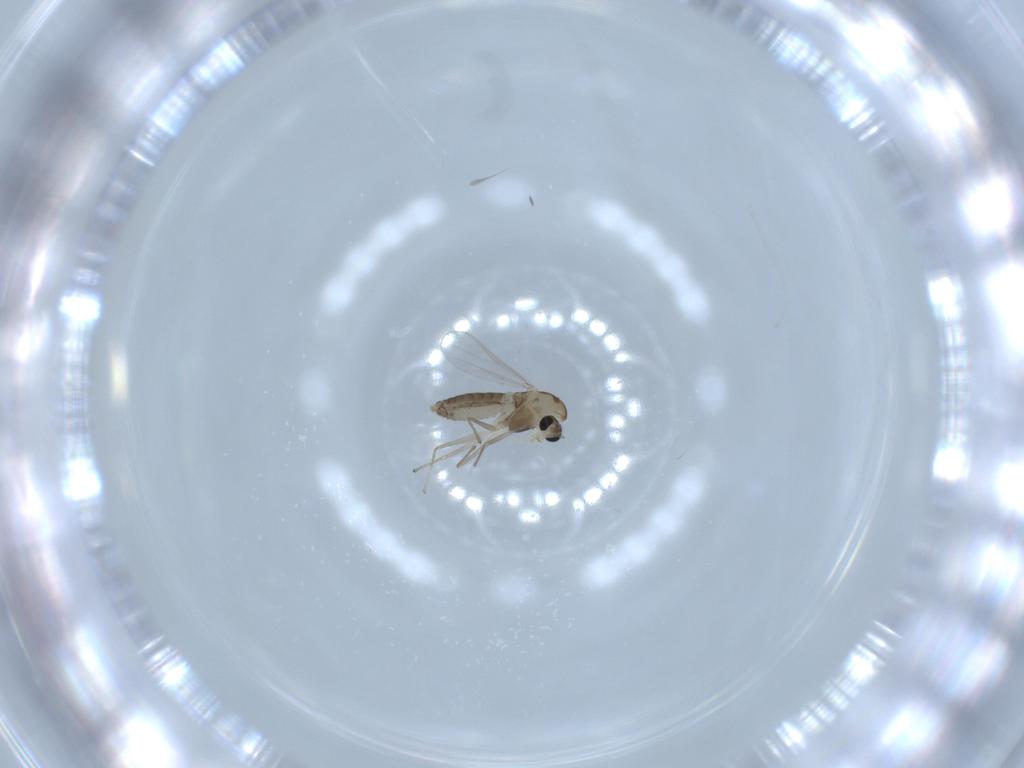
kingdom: Animalia
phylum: Arthropoda
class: Insecta
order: Diptera
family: Chironomidae
